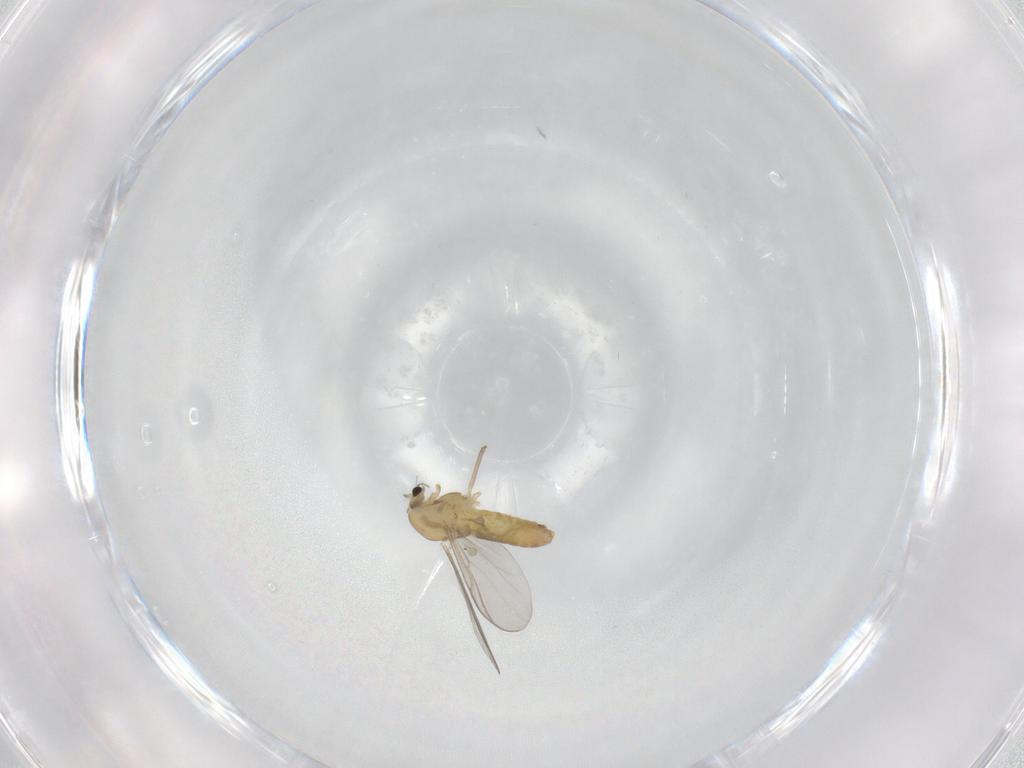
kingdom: Animalia
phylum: Arthropoda
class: Insecta
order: Diptera
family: Chironomidae
